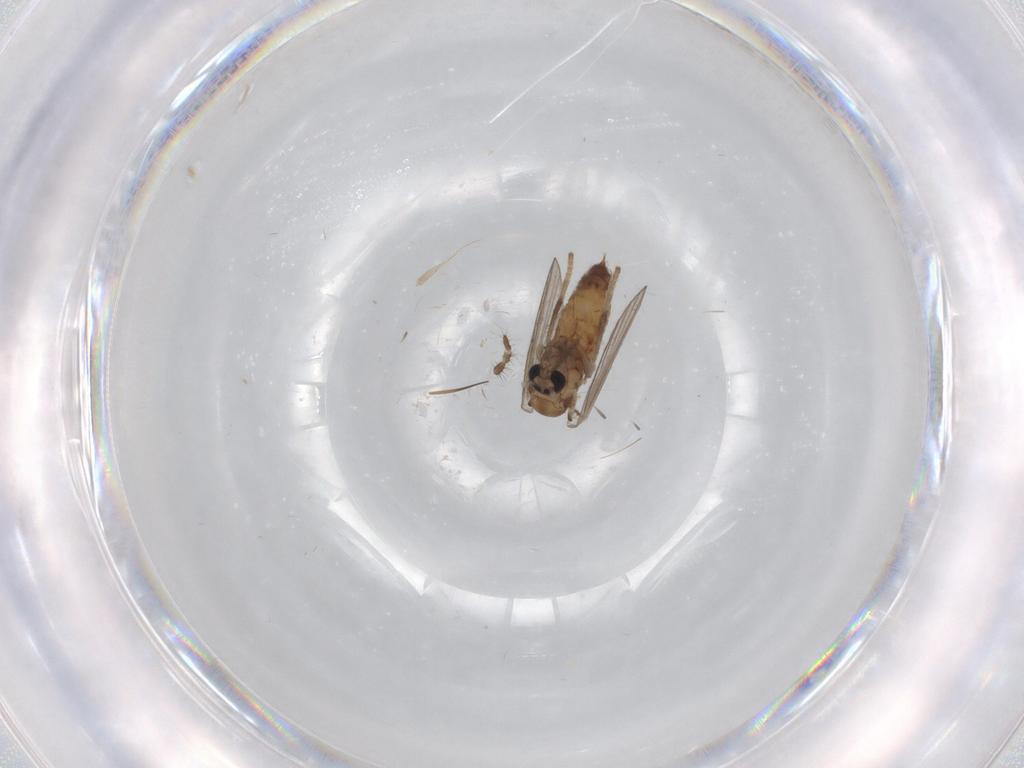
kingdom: Animalia
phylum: Arthropoda
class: Insecta
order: Diptera
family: Psychodidae
